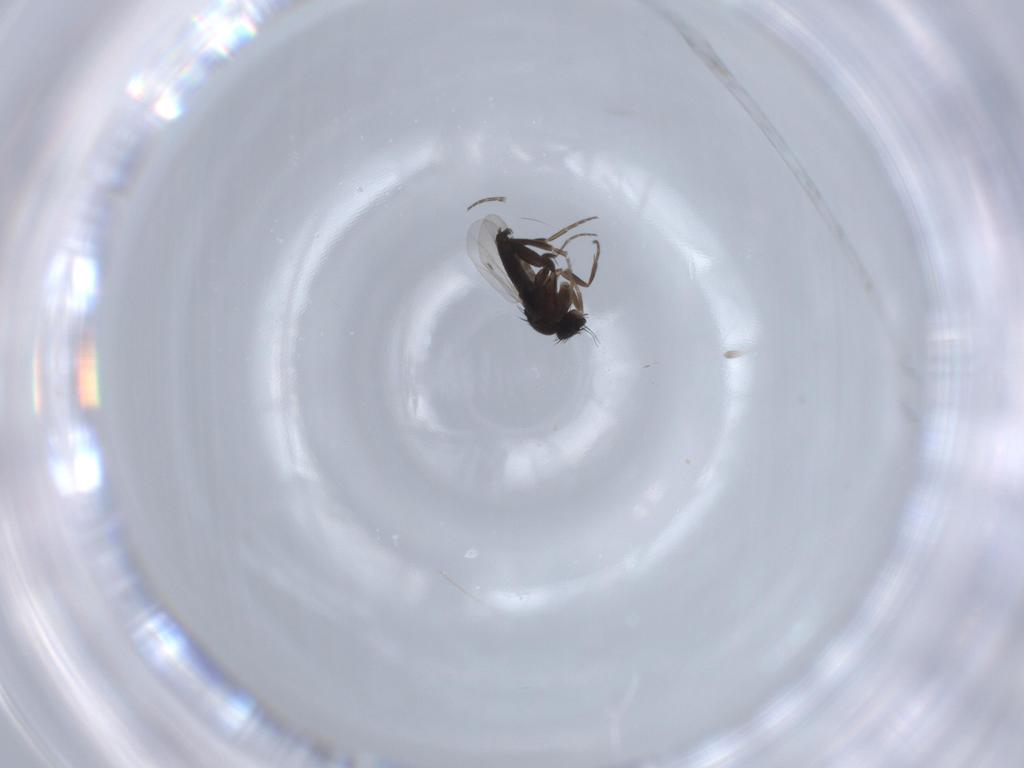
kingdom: Animalia
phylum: Arthropoda
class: Insecta
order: Diptera
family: Phoridae
